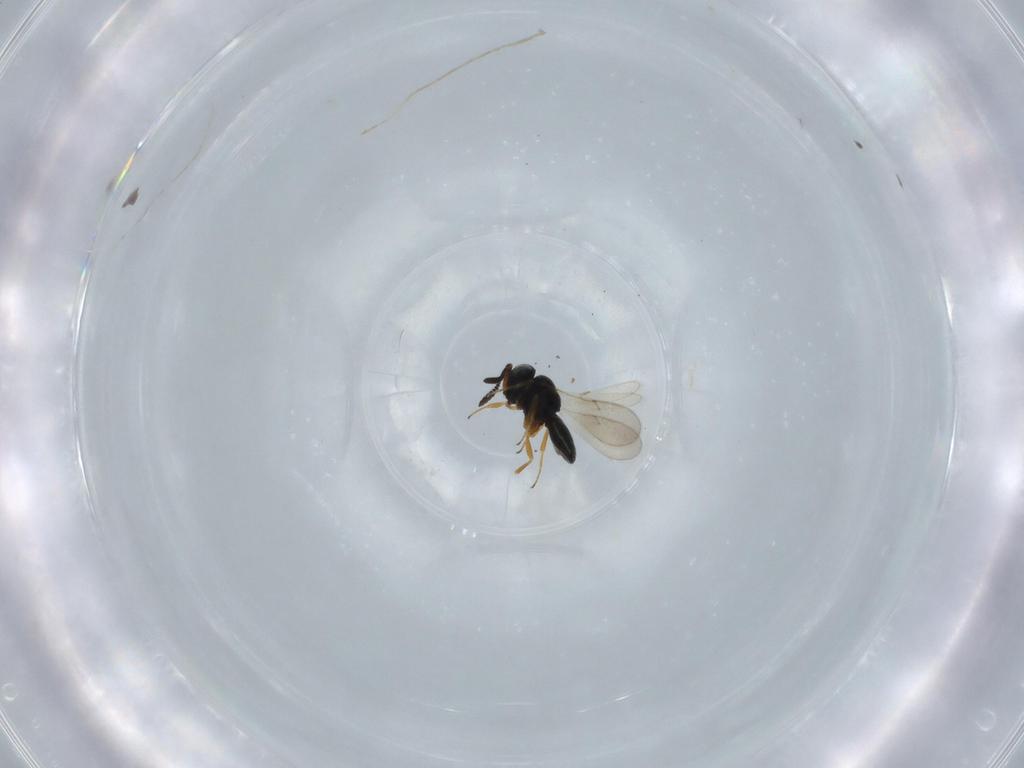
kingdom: Animalia
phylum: Arthropoda
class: Insecta
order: Hymenoptera
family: Scelionidae
